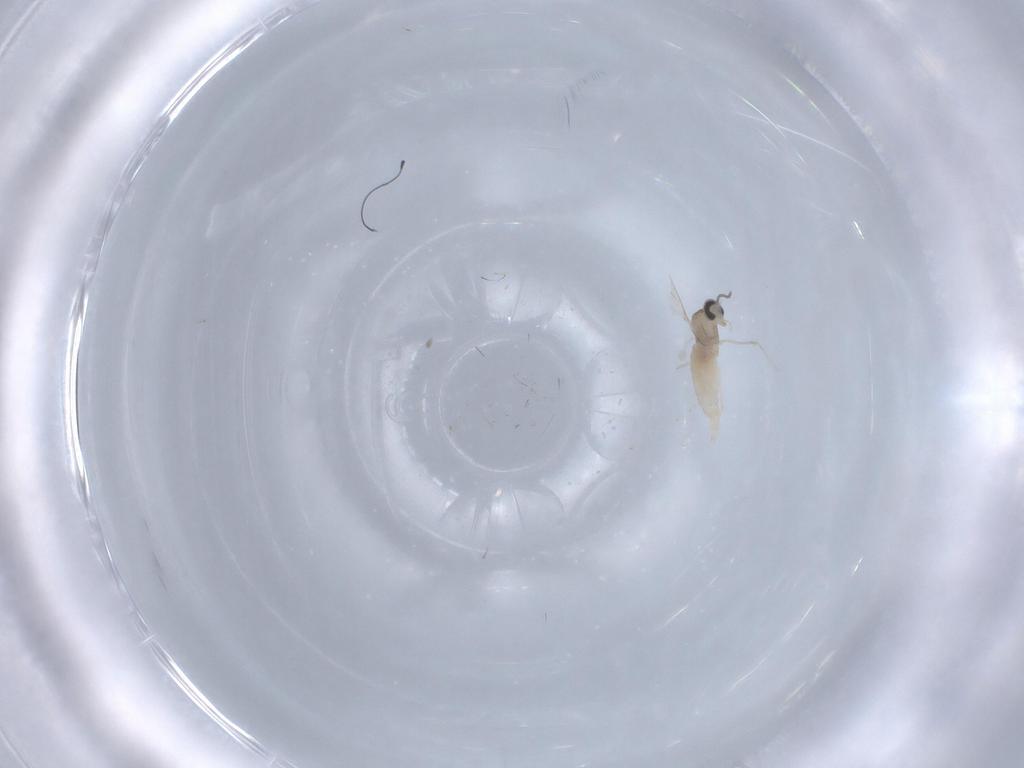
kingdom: Animalia
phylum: Arthropoda
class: Insecta
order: Diptera
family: Cecidomyiidae
